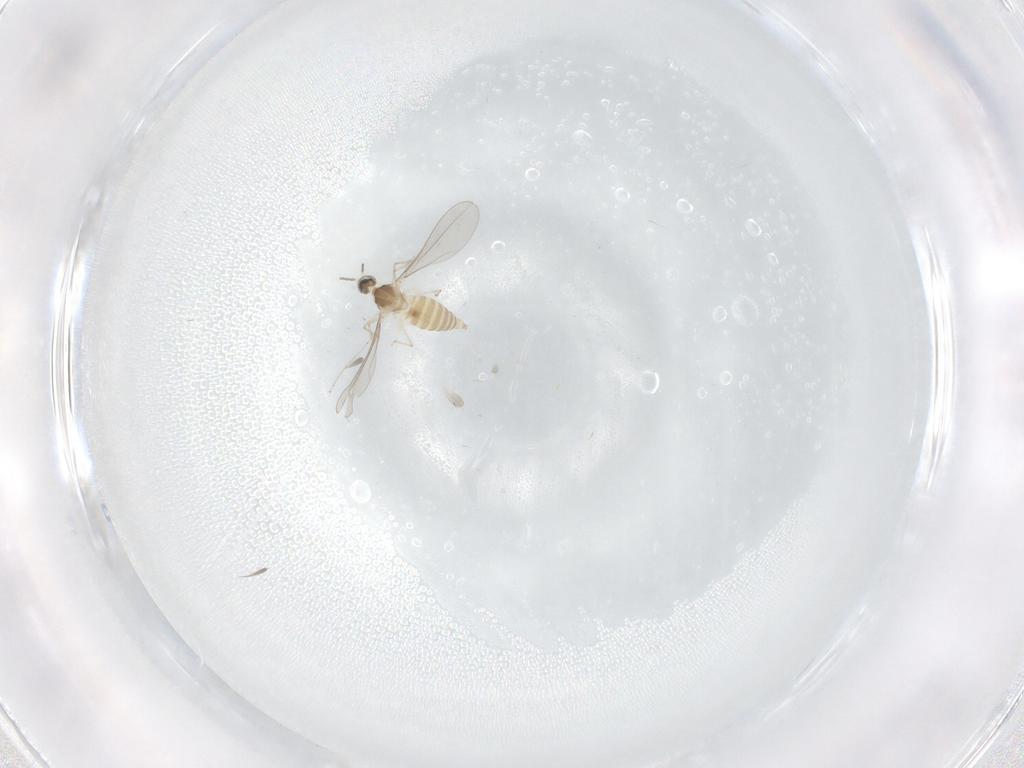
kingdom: Animalia
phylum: Arthropoda
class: Insecta
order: Diptera
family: Cecidomyiidae
